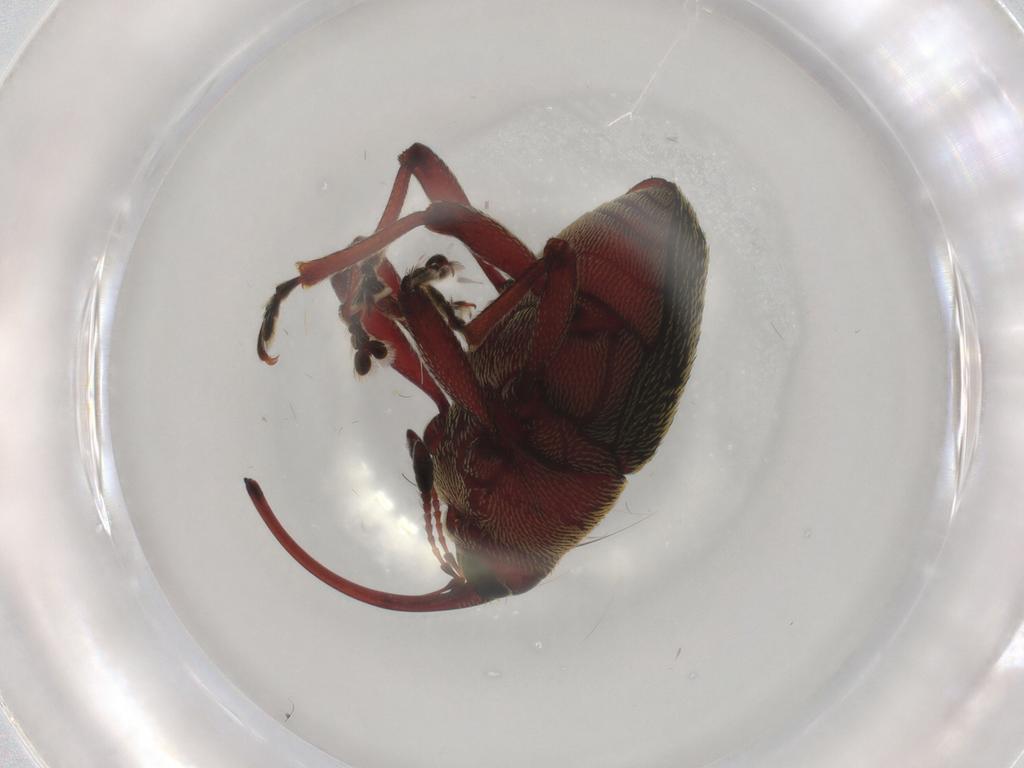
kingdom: Animalia
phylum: Arthropoda
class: Insecta
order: Coleoptera
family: Curculionidae
